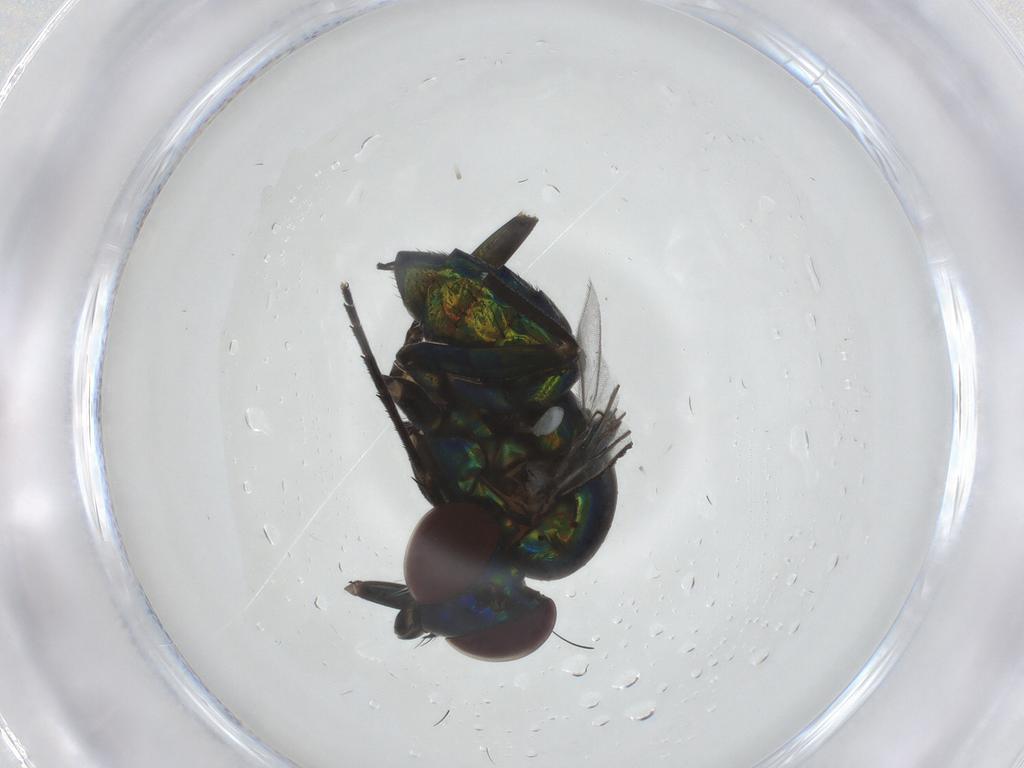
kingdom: Animalia
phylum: Arthropoda
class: Insecta
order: Diptera
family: Dolichopodidae
